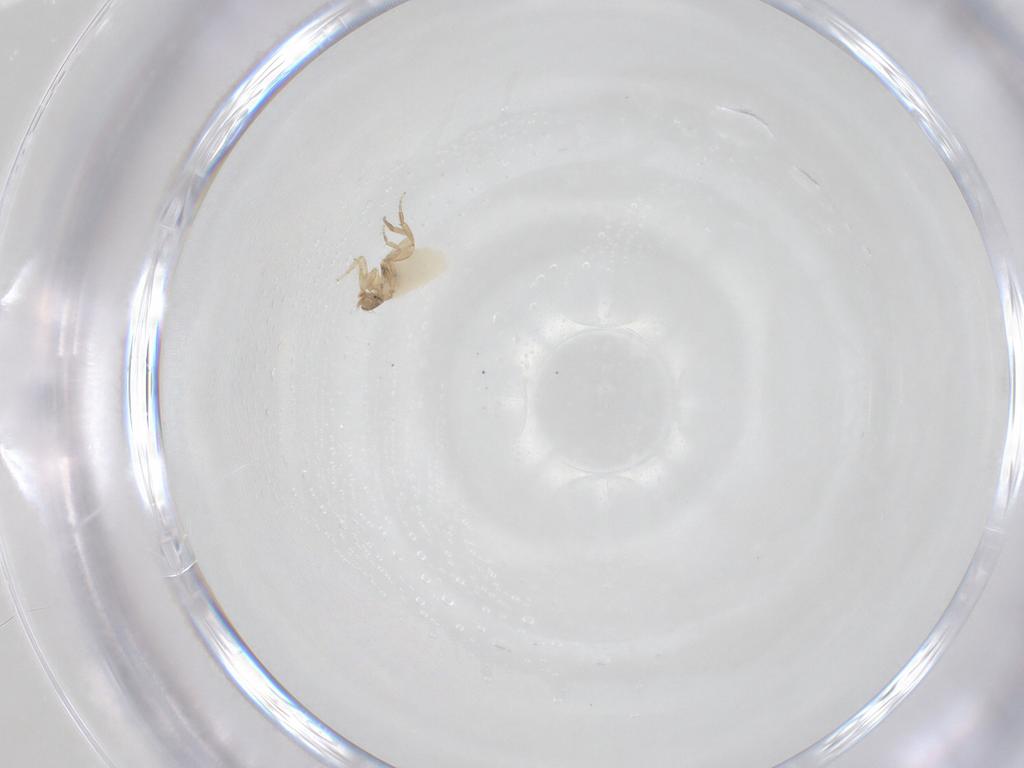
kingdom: Animalia
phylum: Arthropoda
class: Insecta
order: Diptera
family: Phoridae
